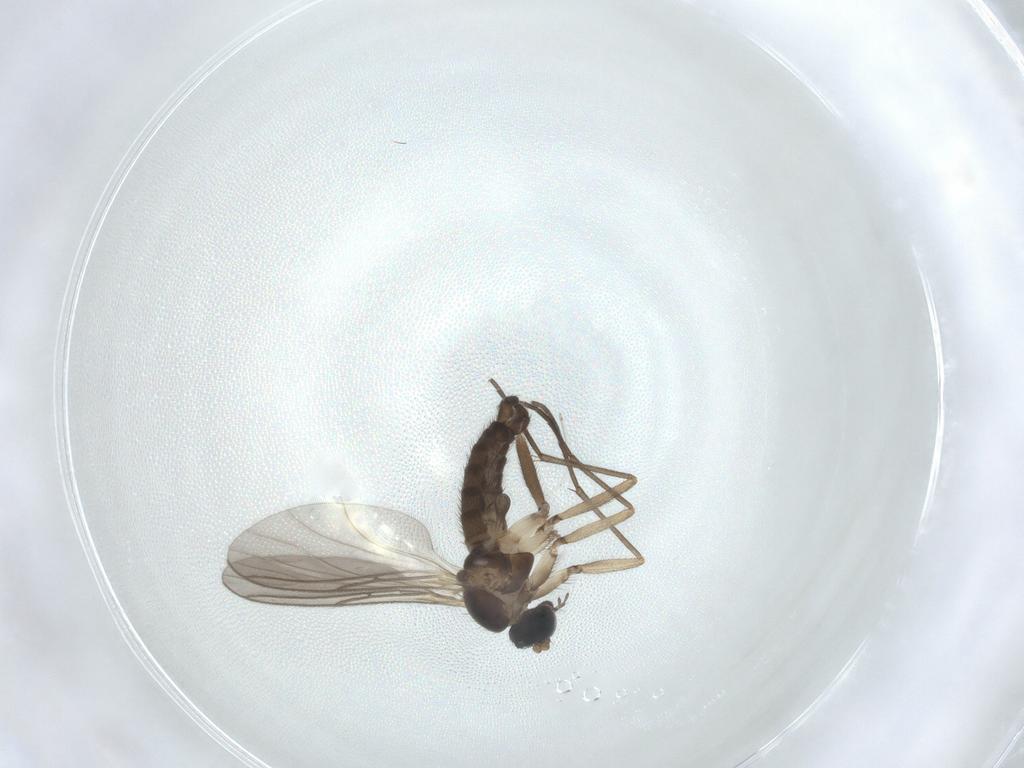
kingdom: Animalia
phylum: Arthropoda
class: Insecta
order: Diptera
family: Cecidomyiidae
